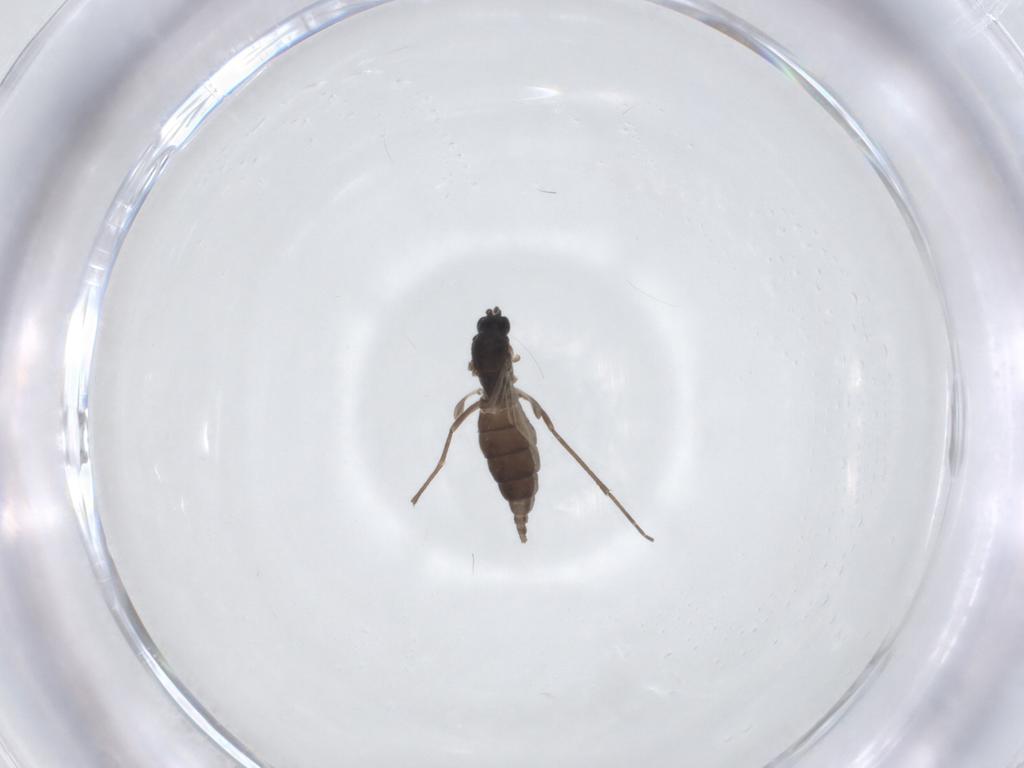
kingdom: Animalia
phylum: Arthropoda
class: Insecta
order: Diptera
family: Sciaridae
